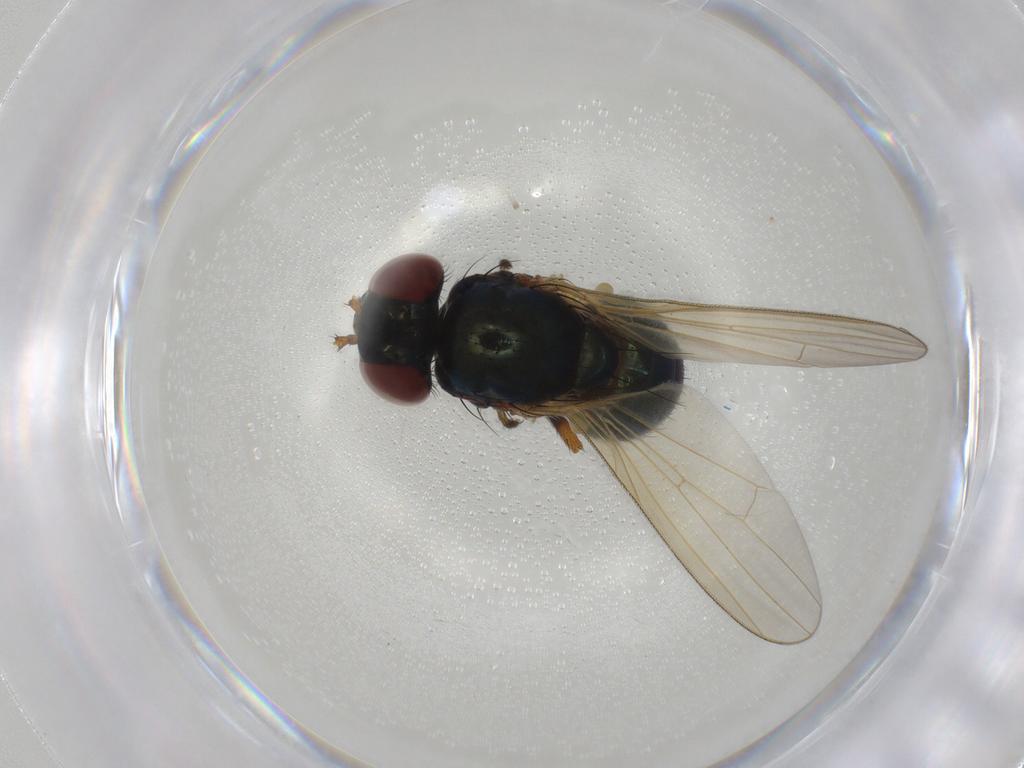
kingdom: Animalia
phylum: Arthropoda
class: Insecta
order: Diptera
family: Lauxaniidae
